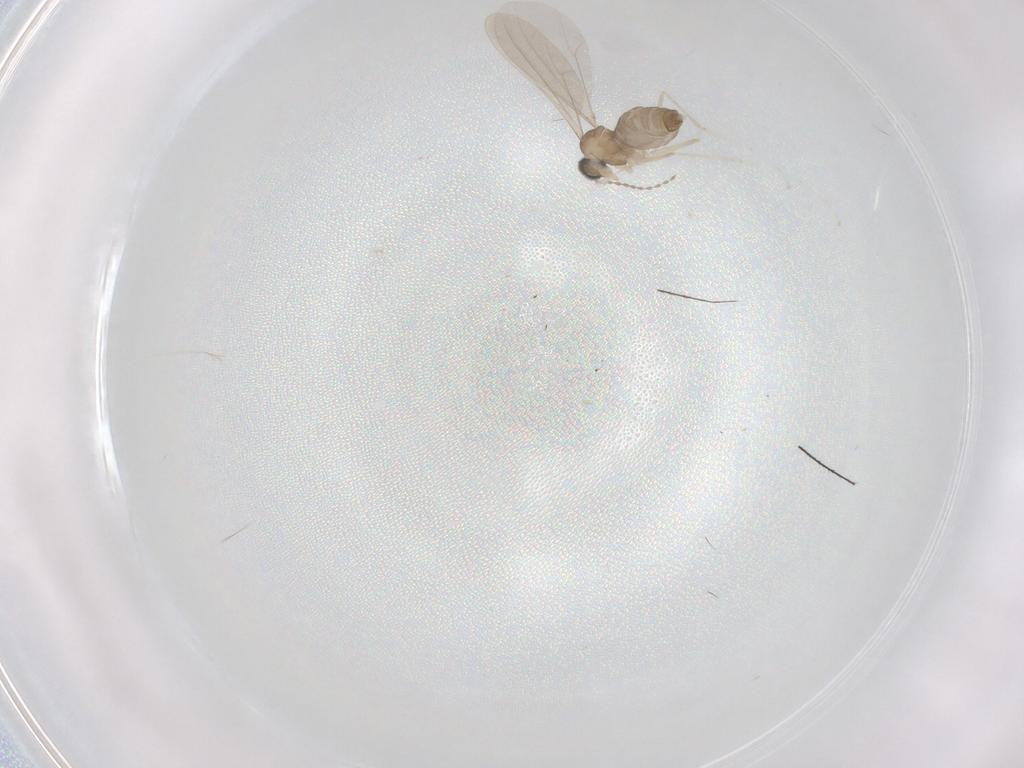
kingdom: Animalia
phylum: Arthropoda
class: Insecta
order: Diptera
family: Cecidomyiidae
